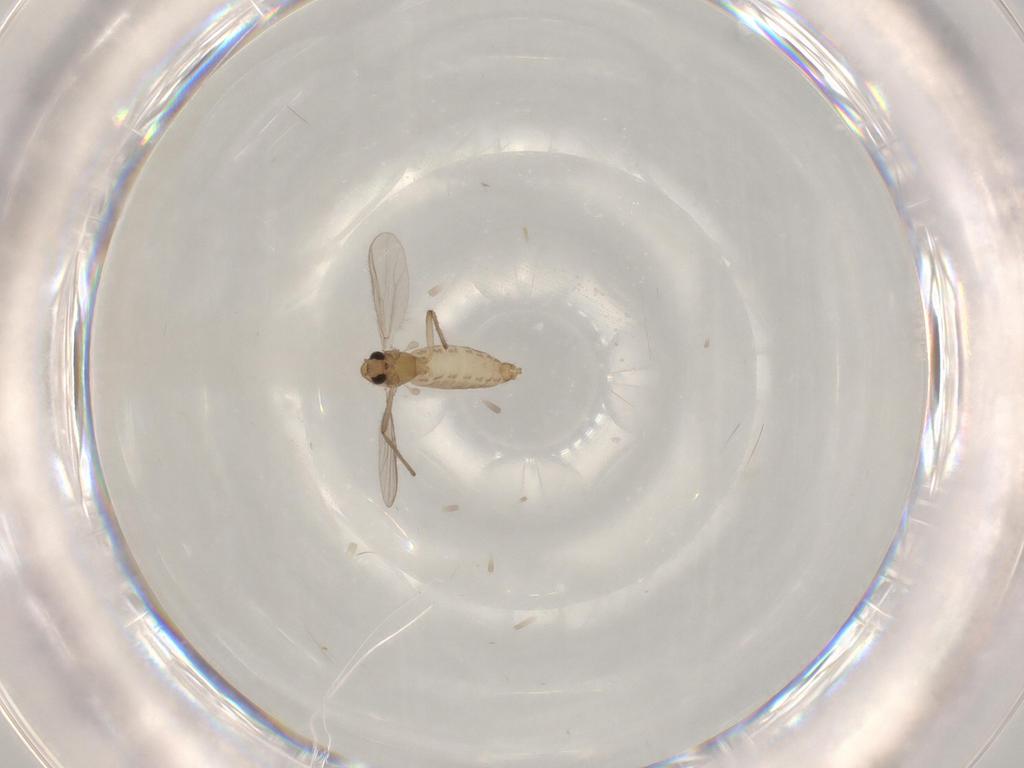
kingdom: Animalia
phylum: Arthropoda
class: Insecta
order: Diptera
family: Chironomidae
